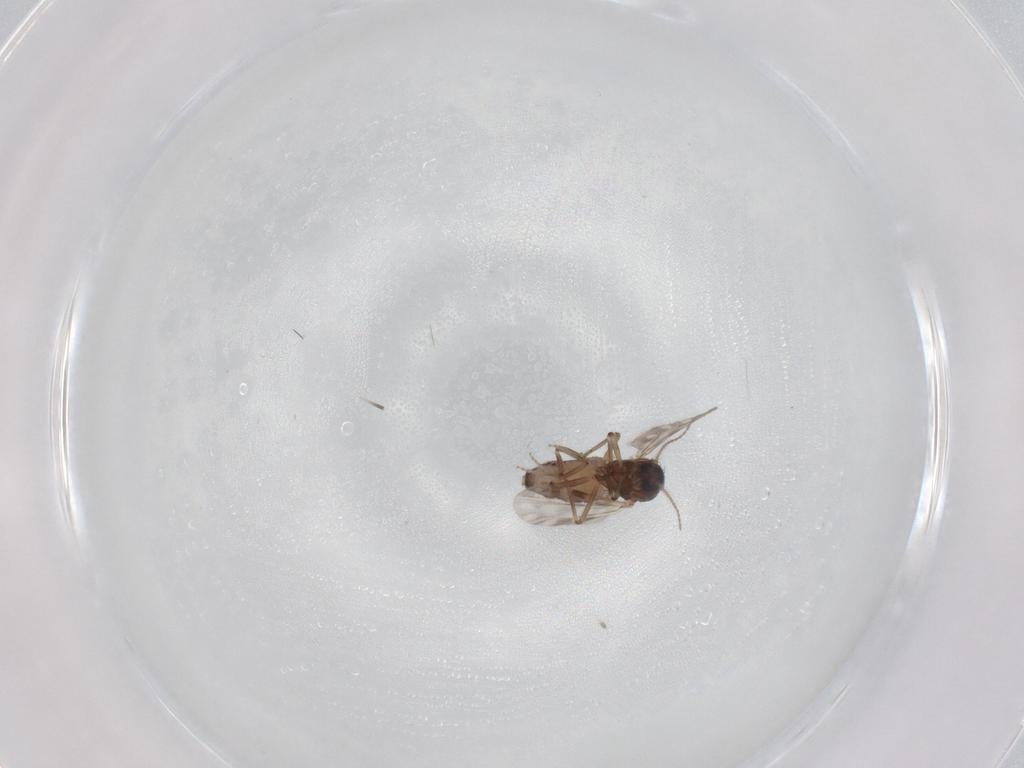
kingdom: Animalia
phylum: Arthropoda
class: Insecta
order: Diptera
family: Ceratopogonidae
